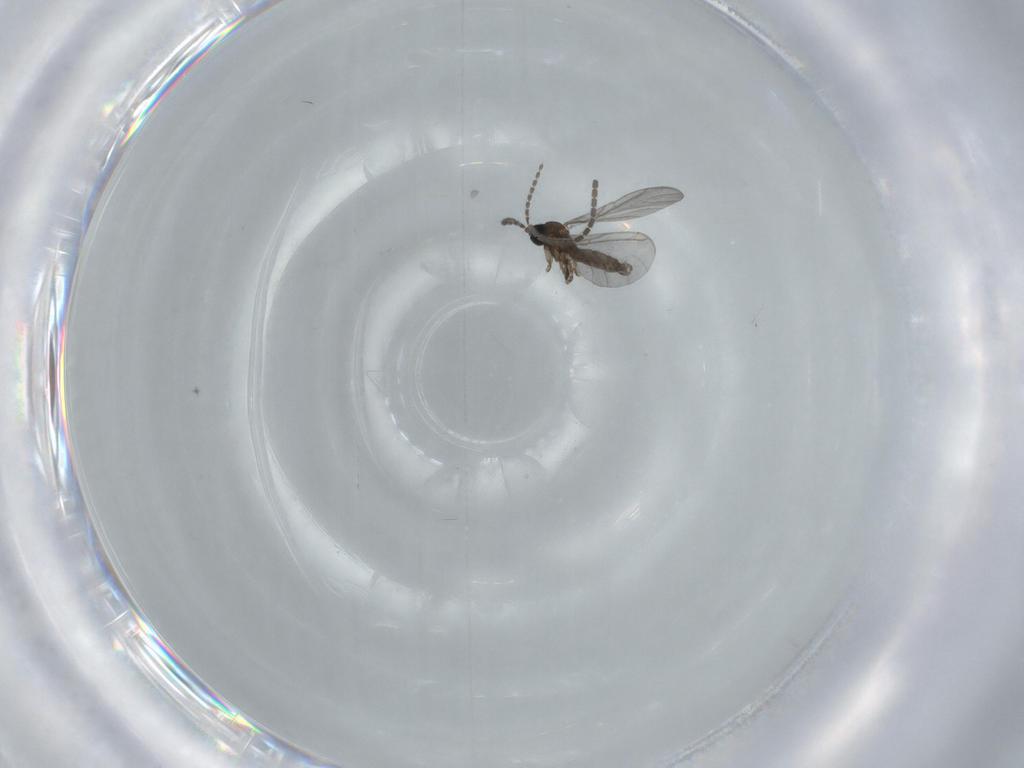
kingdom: Animalia
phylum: Arthropoda
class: Insecta
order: Diptera
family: Sciaridae
